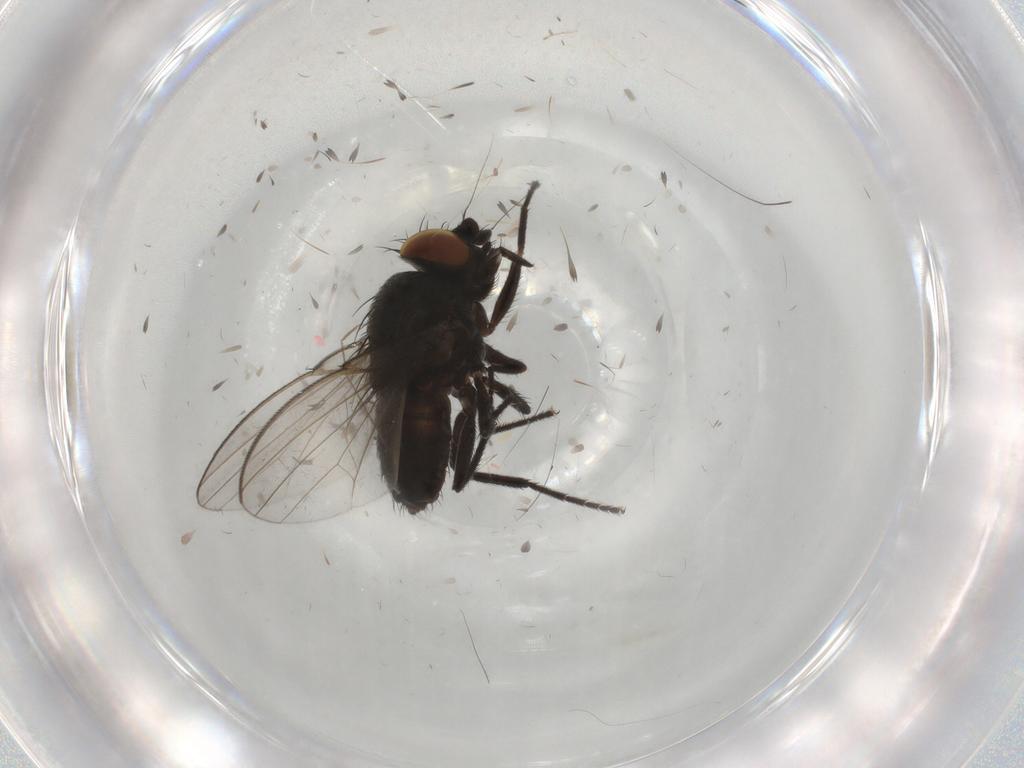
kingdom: Animalia
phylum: Arthropoda
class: Insecta
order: Diptera
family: Milichiidae
